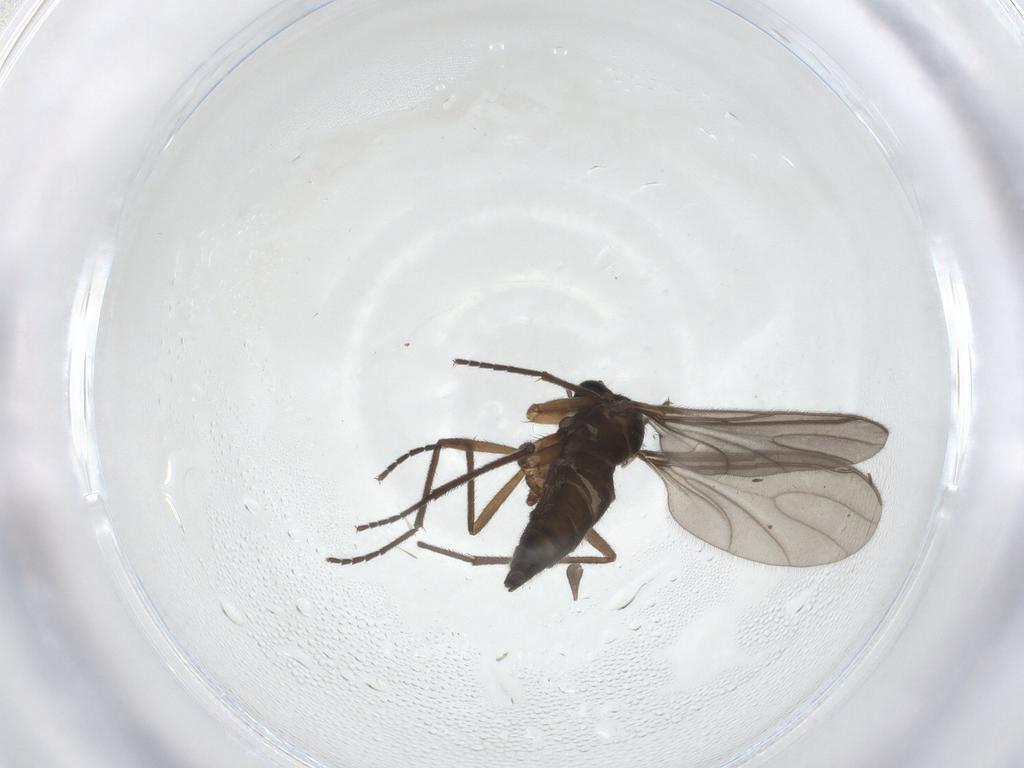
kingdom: Animalia
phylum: Arthropoda
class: Insecta
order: Diptera
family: Sciaridae
